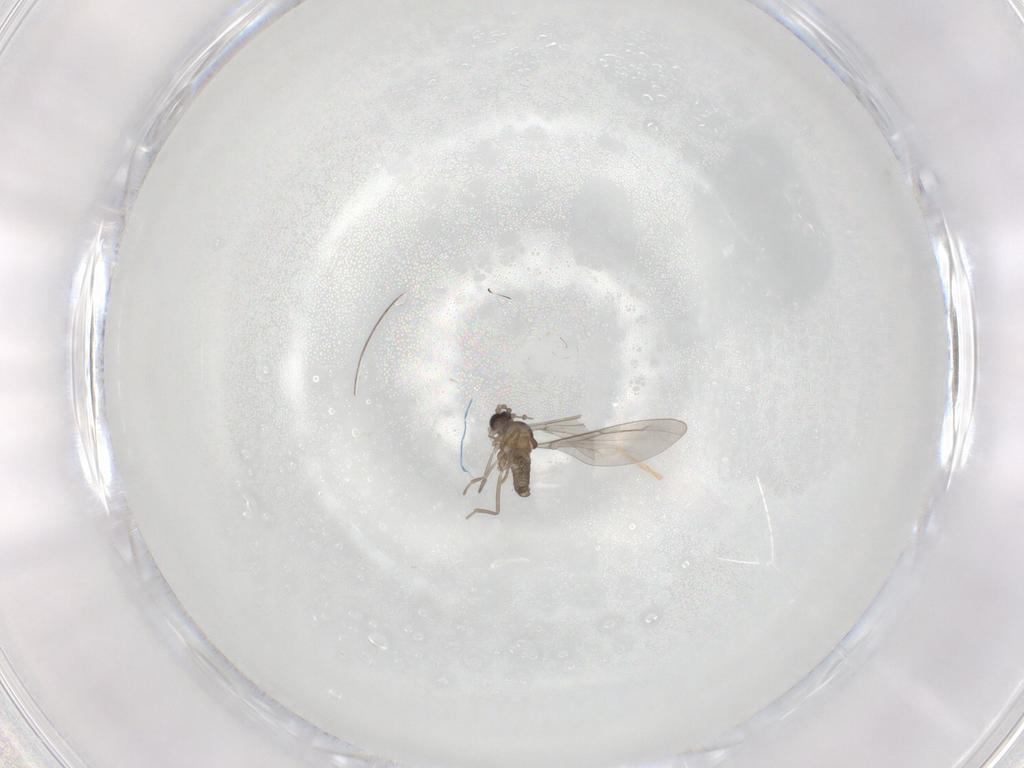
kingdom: Animalia
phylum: Arthropoda
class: Insecta
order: Diptera
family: Cecidomyiidae
